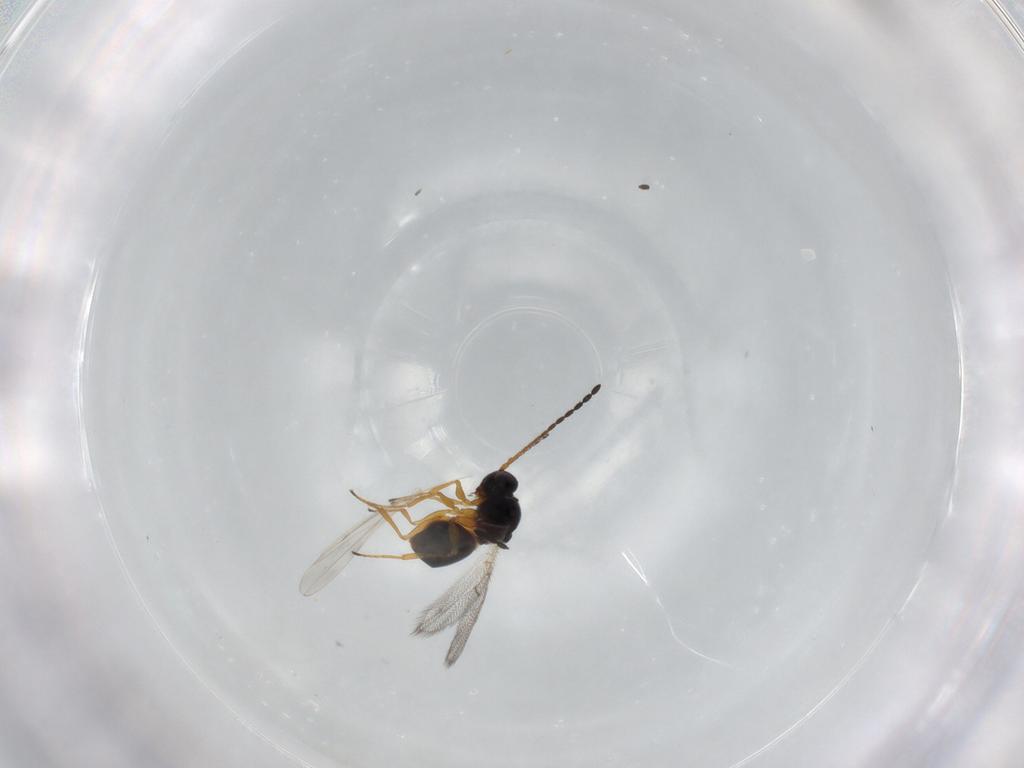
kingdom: Animalia
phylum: Arthropoda
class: Insecta
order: Hymenoptera
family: Figitidae
